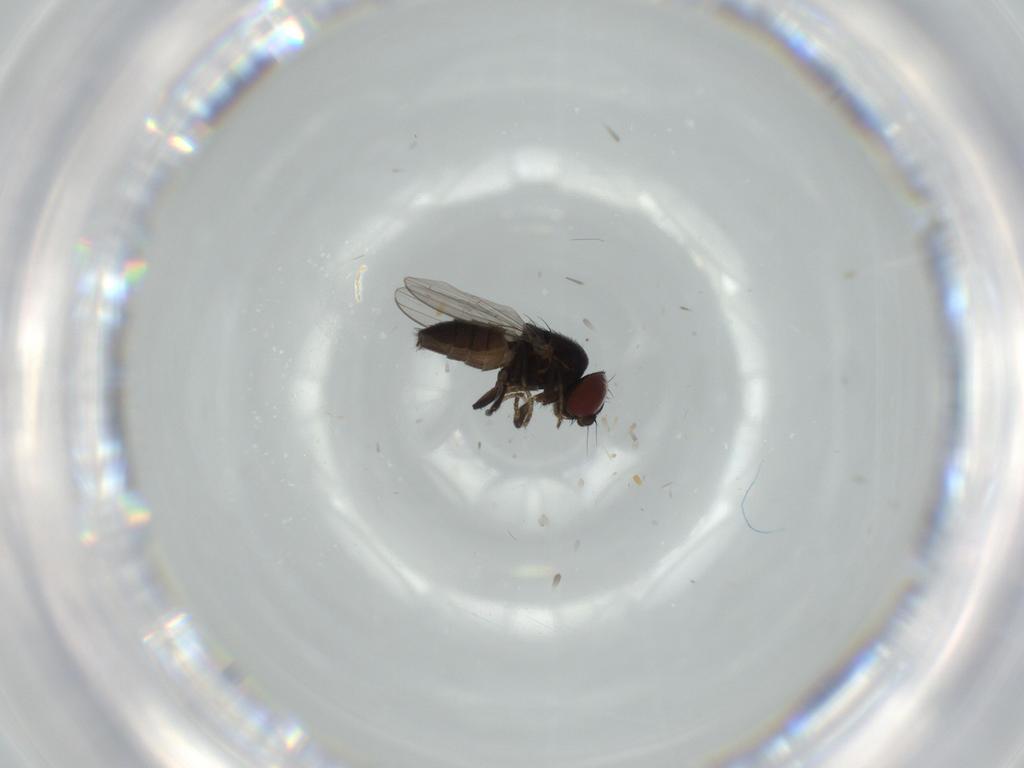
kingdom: Animalia
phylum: Arthropoda
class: Insecta
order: Diptera
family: Milichiidae
